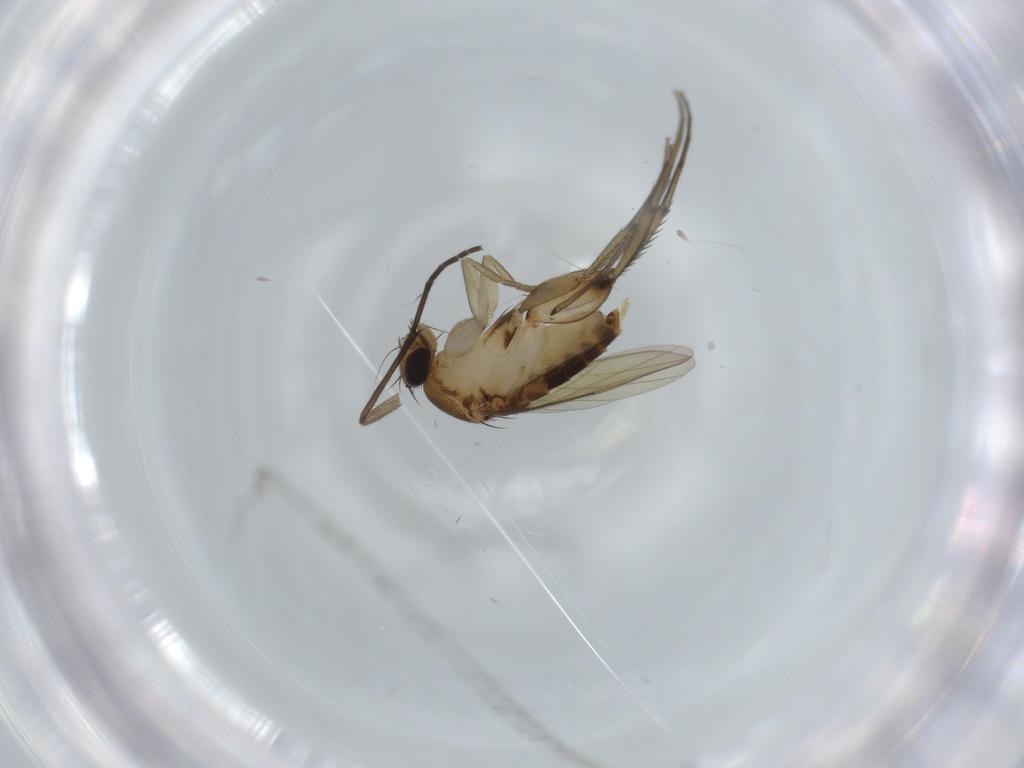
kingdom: Animalia
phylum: Arthropoda
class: Insecta
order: Diptera
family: Phoridae
